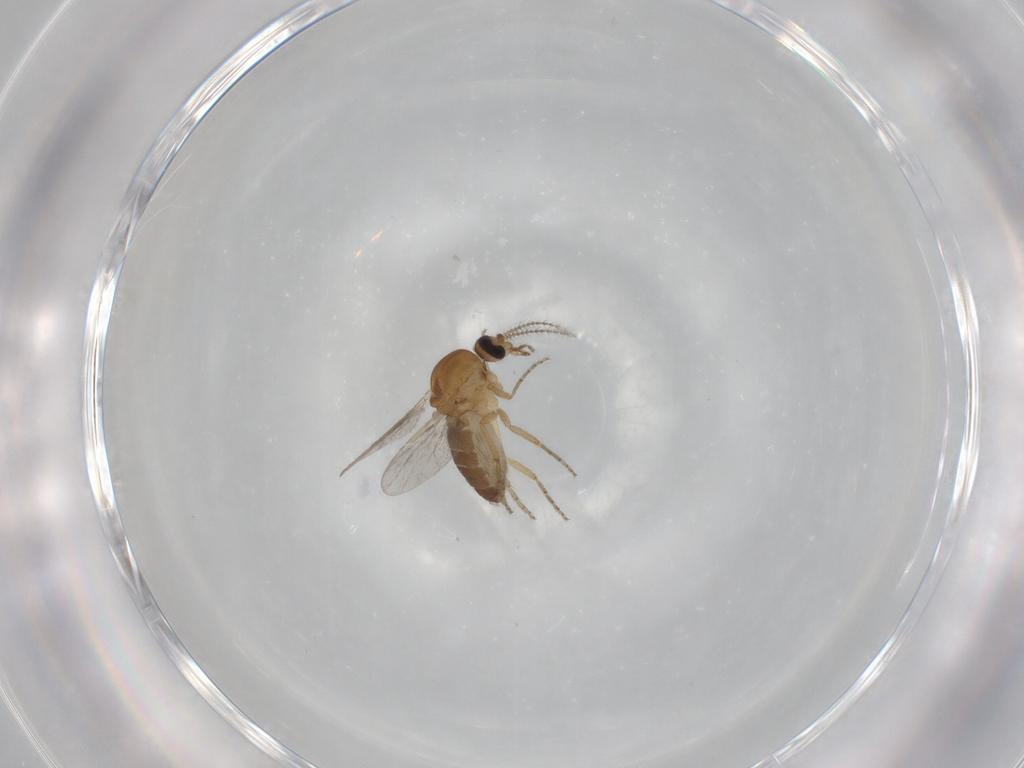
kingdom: Animalia
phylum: Arthropoda
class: Insecta
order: Diptera
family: Ceratopogonidae
